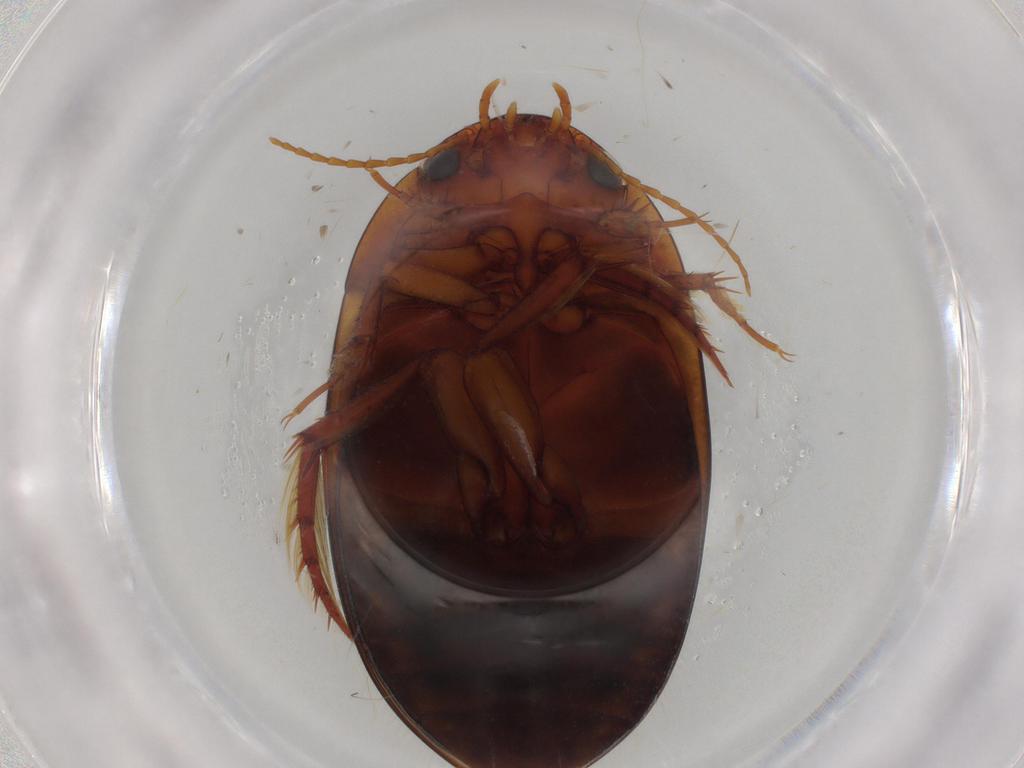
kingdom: Animalia
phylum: Arthropoda
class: Insecta
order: Coleoptera
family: Dytiscidae
